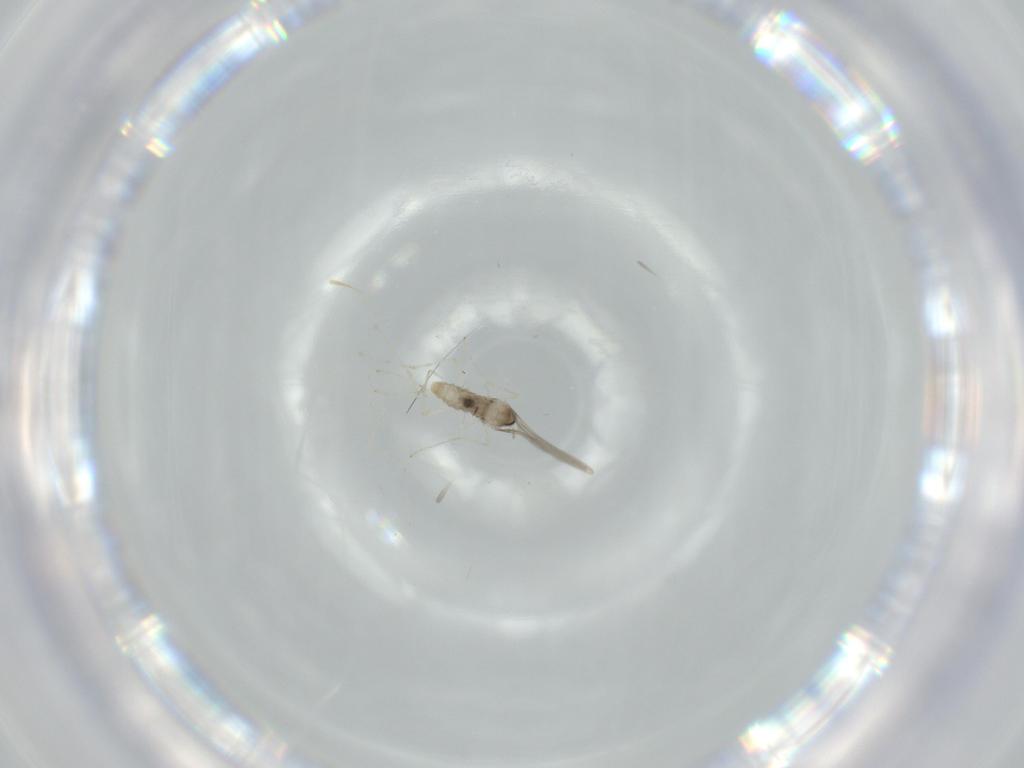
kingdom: Animalia
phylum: Arthropoda
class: Insecta
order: Diptera
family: Cecidomyiidae
